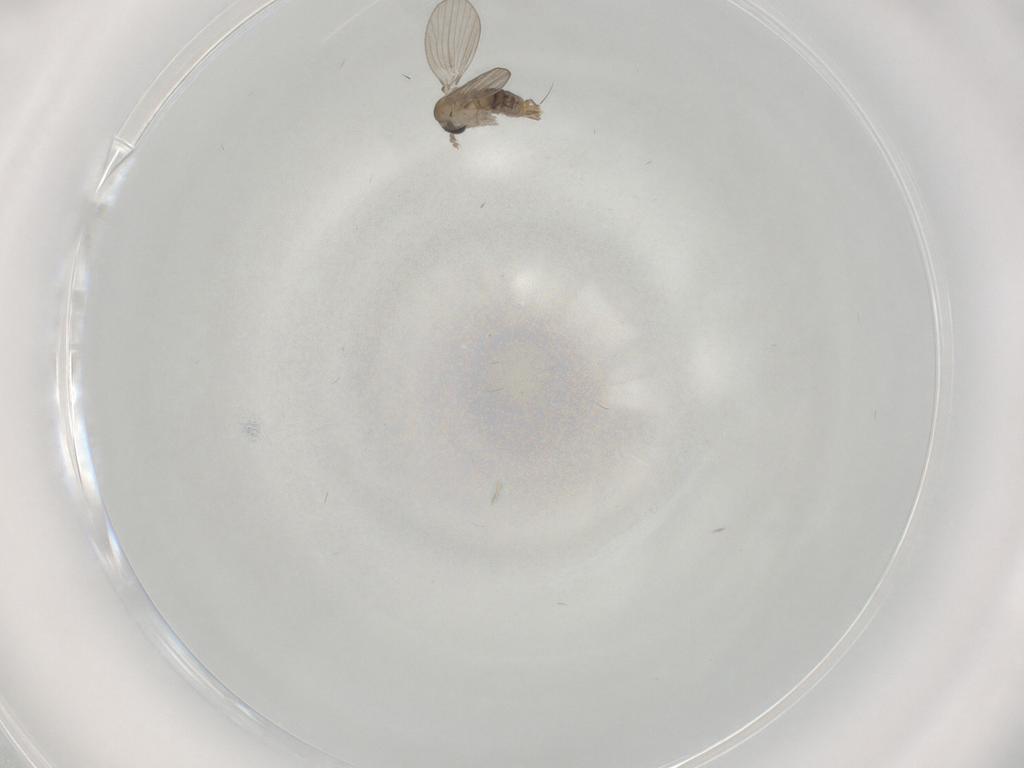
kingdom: Animalia
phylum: Arthropoda
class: Insecta
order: Diptera
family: Psychodidae
